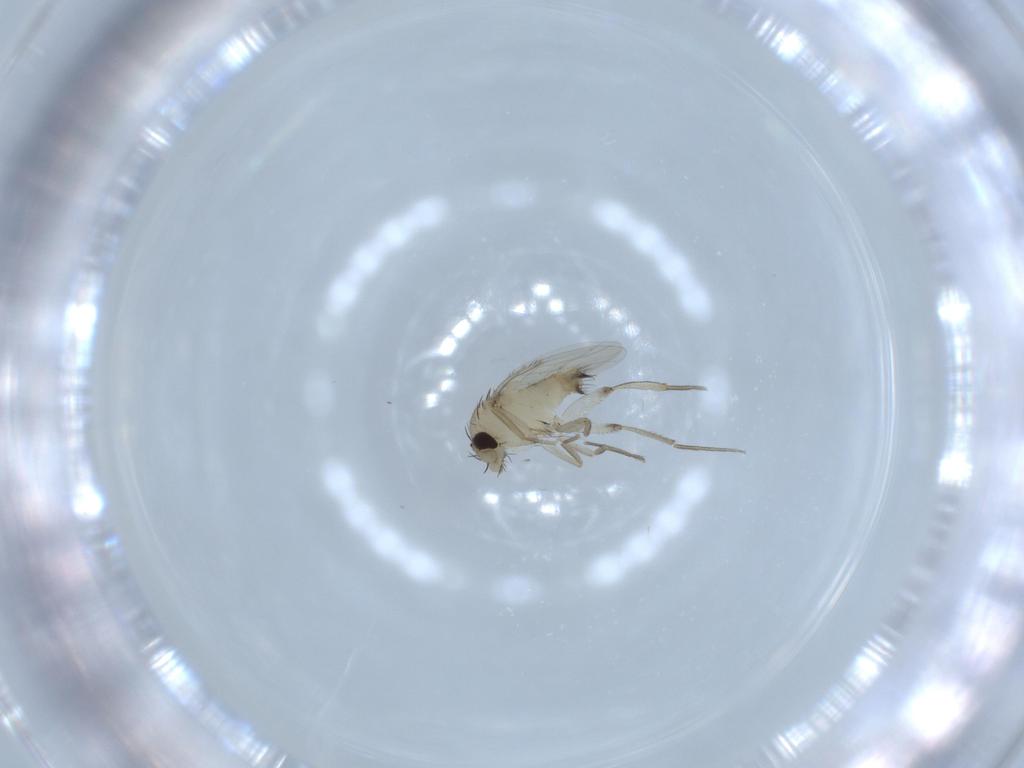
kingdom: Animalia
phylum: Arthropoda
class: Insecta
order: Diptera
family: Phoridae
